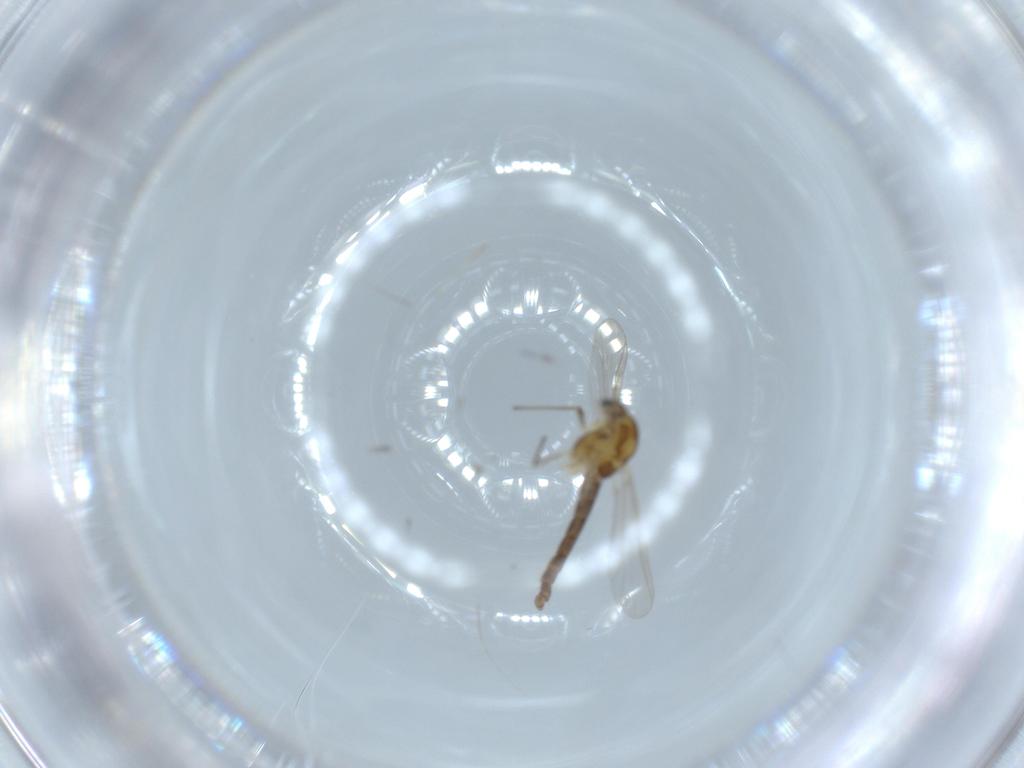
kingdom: Animalia
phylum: Arthropoda
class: Insecta
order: Diptera
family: Chironomidae
